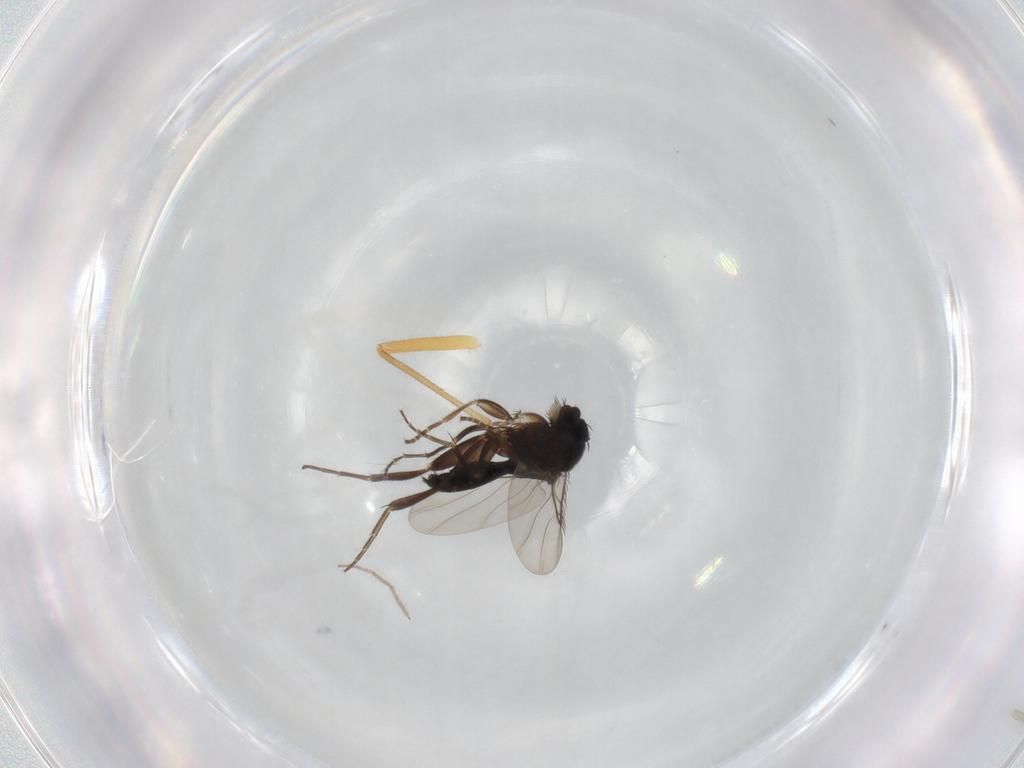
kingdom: Animalia
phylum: Arthropoda
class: Insecta
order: Diptera
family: Phoridae
